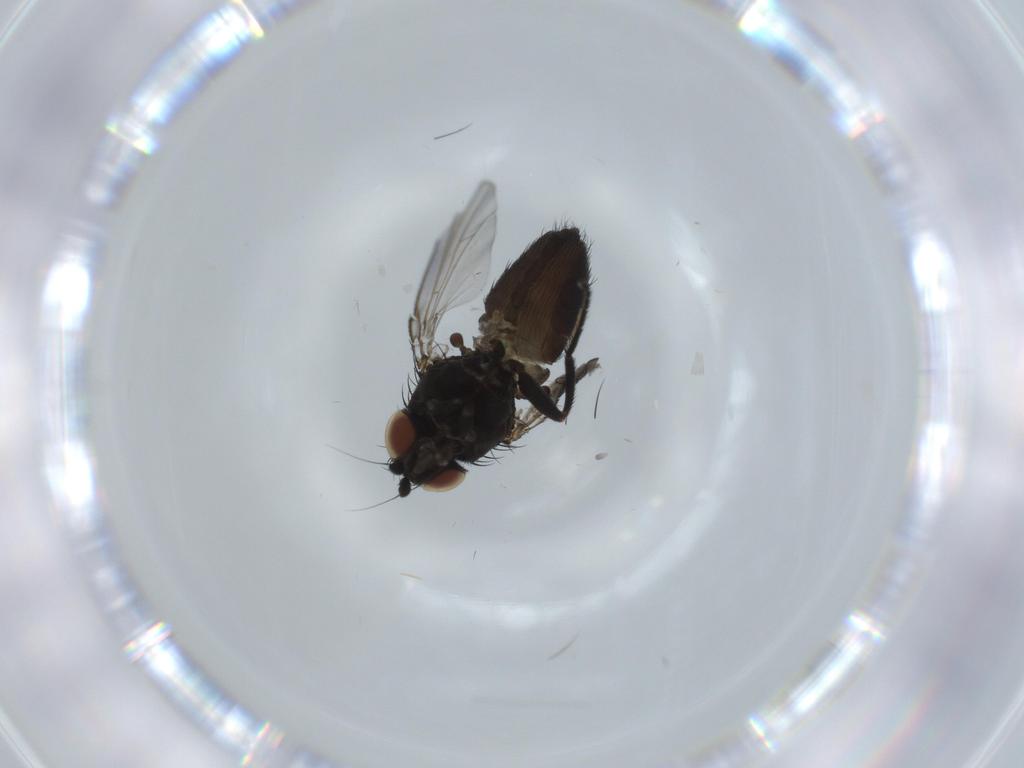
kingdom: Animalia
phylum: Arthropoda
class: Insecta
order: Diptera
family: Milichiidae
